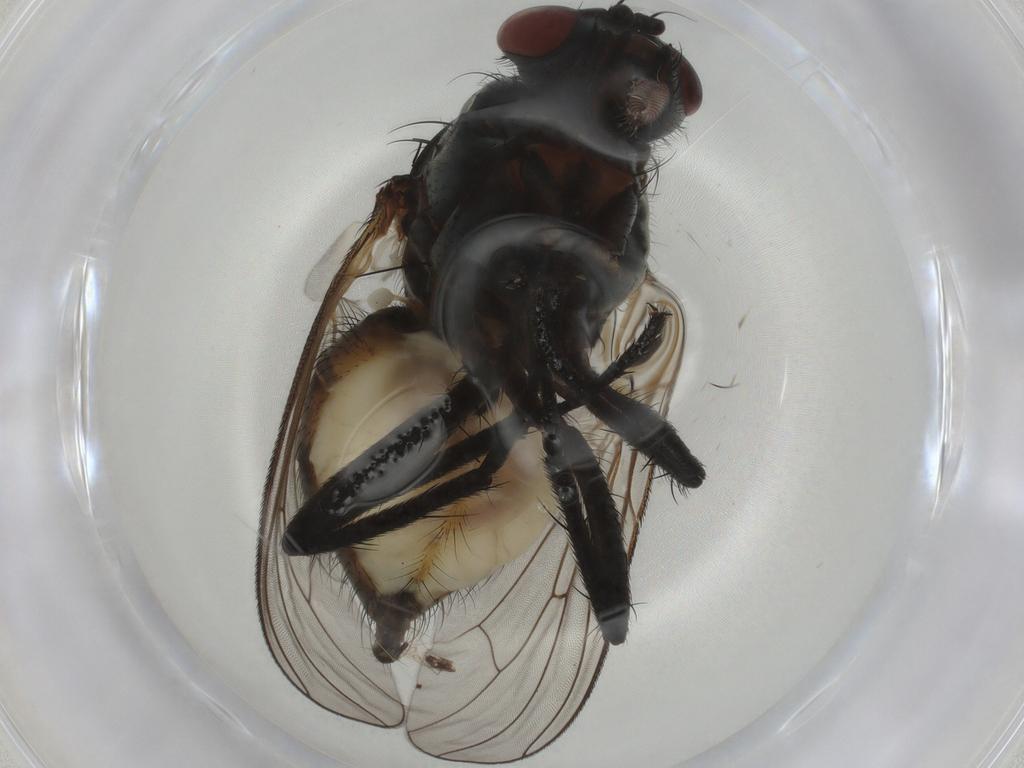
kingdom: Animalia
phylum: Arthropoda
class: Insecta
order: Diptera
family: Anthomyiidae
